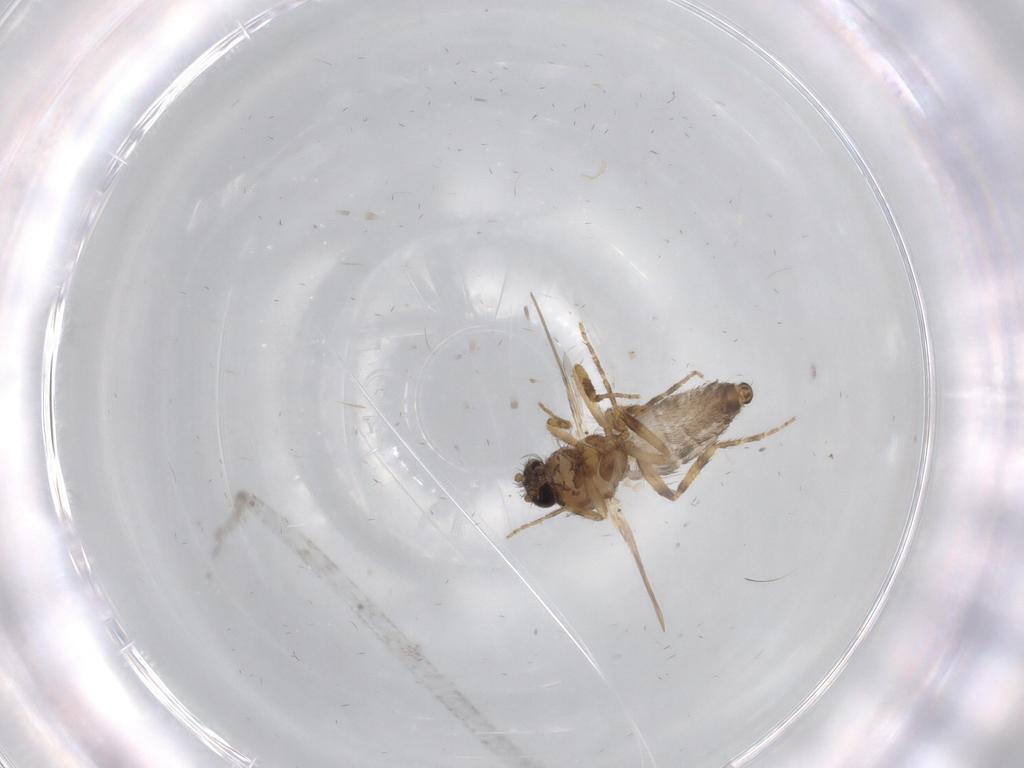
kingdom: Animalia
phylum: Arthropoda
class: Insecta
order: Diptera
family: Ceratopogonidae
